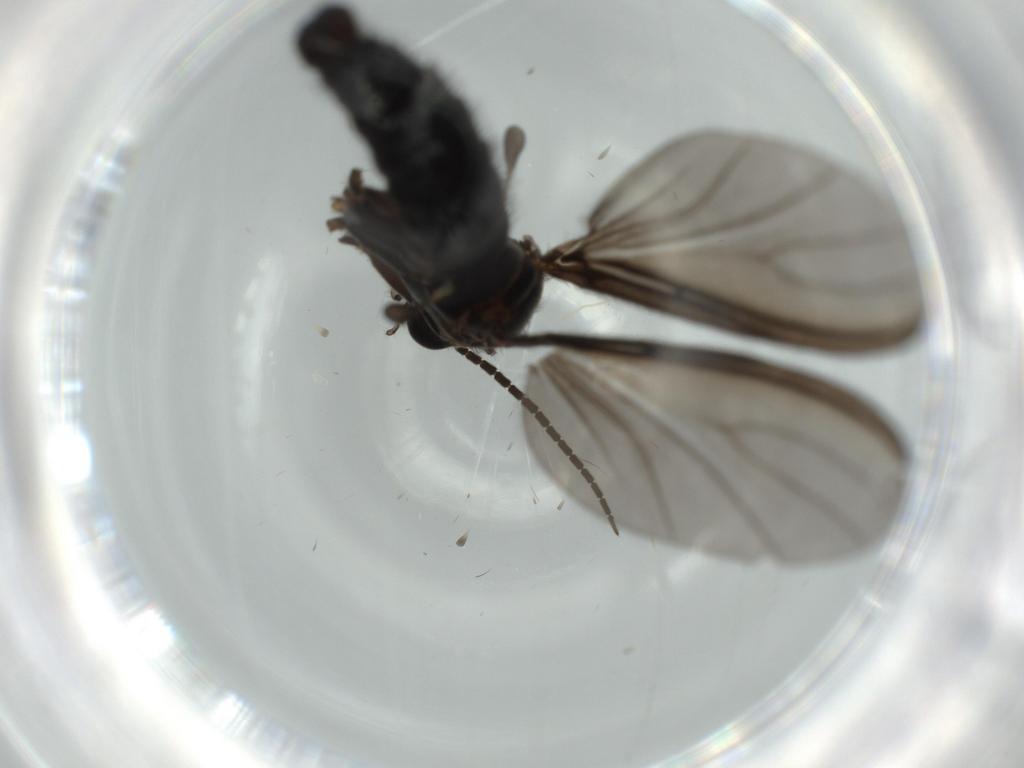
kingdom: Animalia
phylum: Arthropoda
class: Insecta
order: Diptera
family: Sciaridae
